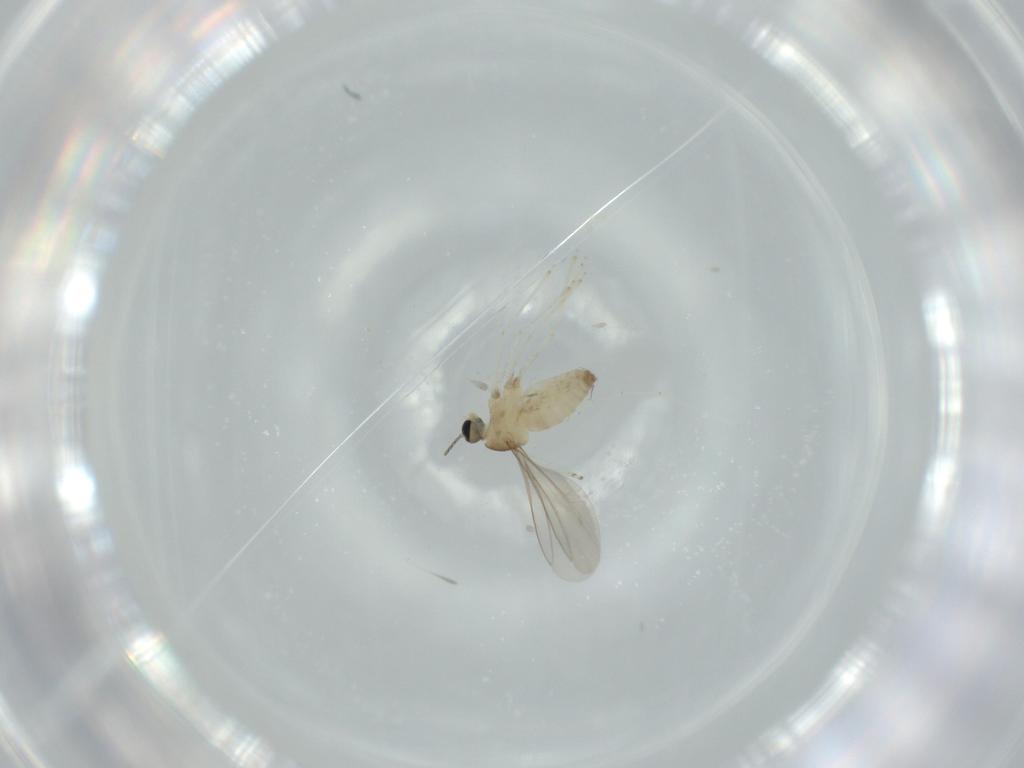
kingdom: Animalia
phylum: Arthropoda
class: Insecta
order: Diptera
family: Cecidomyiidae
